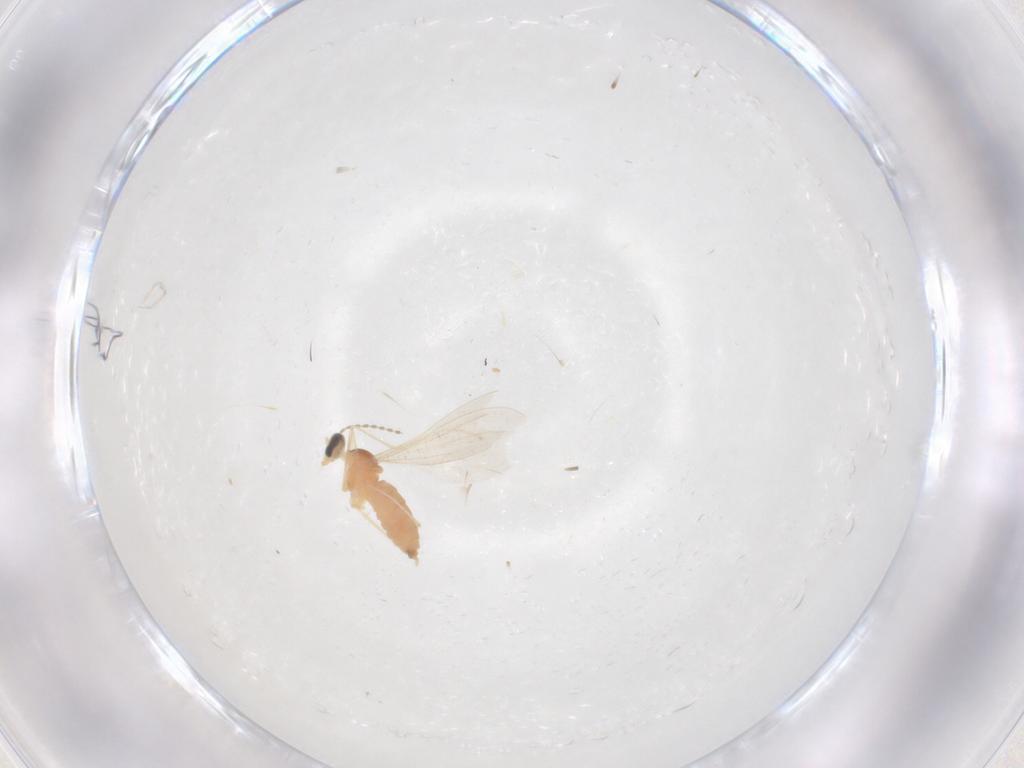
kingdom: Animalia
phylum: Arthropoda
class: Insecta
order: Diptera
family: Cecidomyiidae
